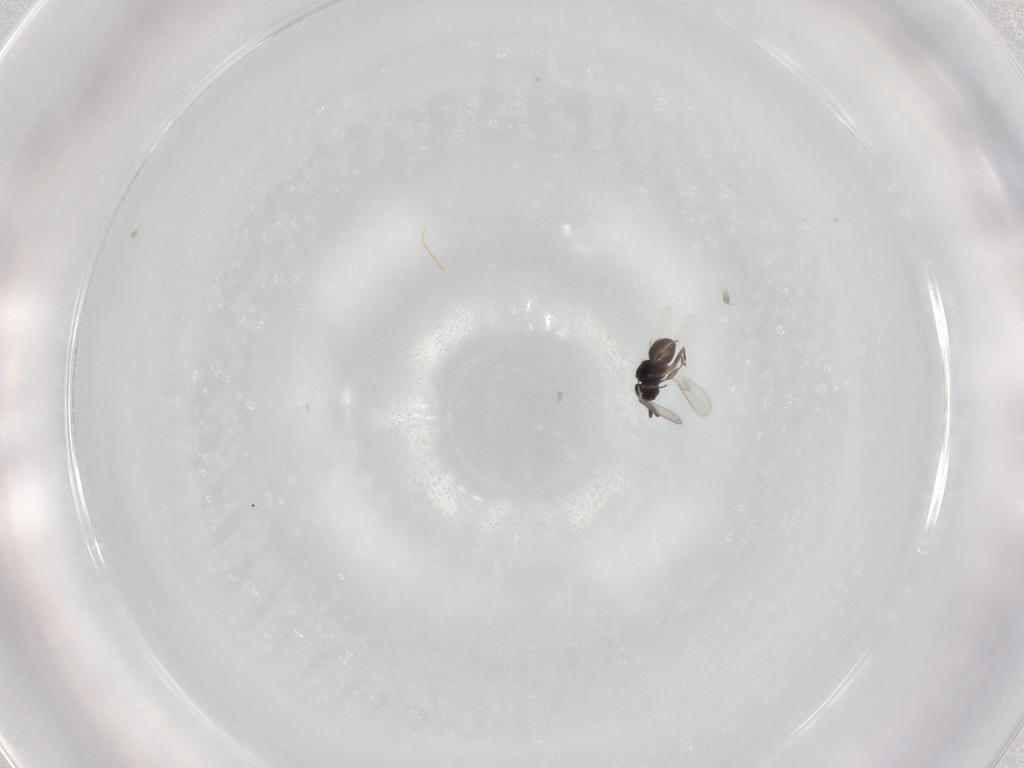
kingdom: Animalia
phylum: Arthropoda
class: Insecta
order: Hymenoptera
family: Scelionidae
